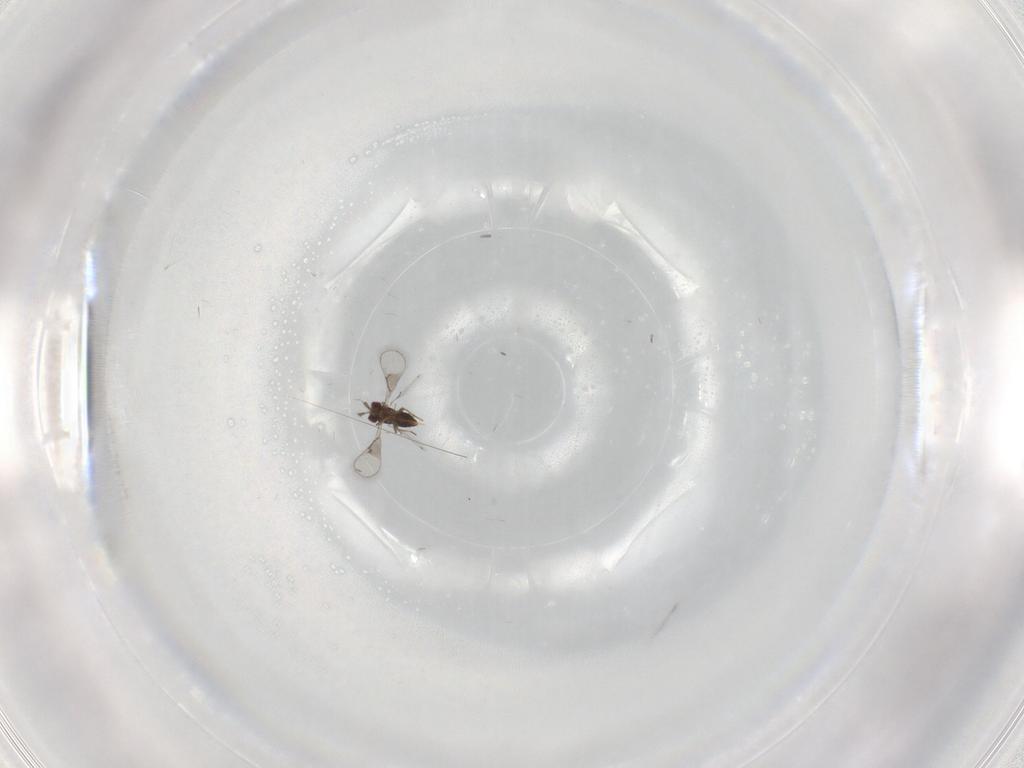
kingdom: Animalia
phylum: Arthropoda
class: Insecta
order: Hymenoptera
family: Trichogrammatidae
